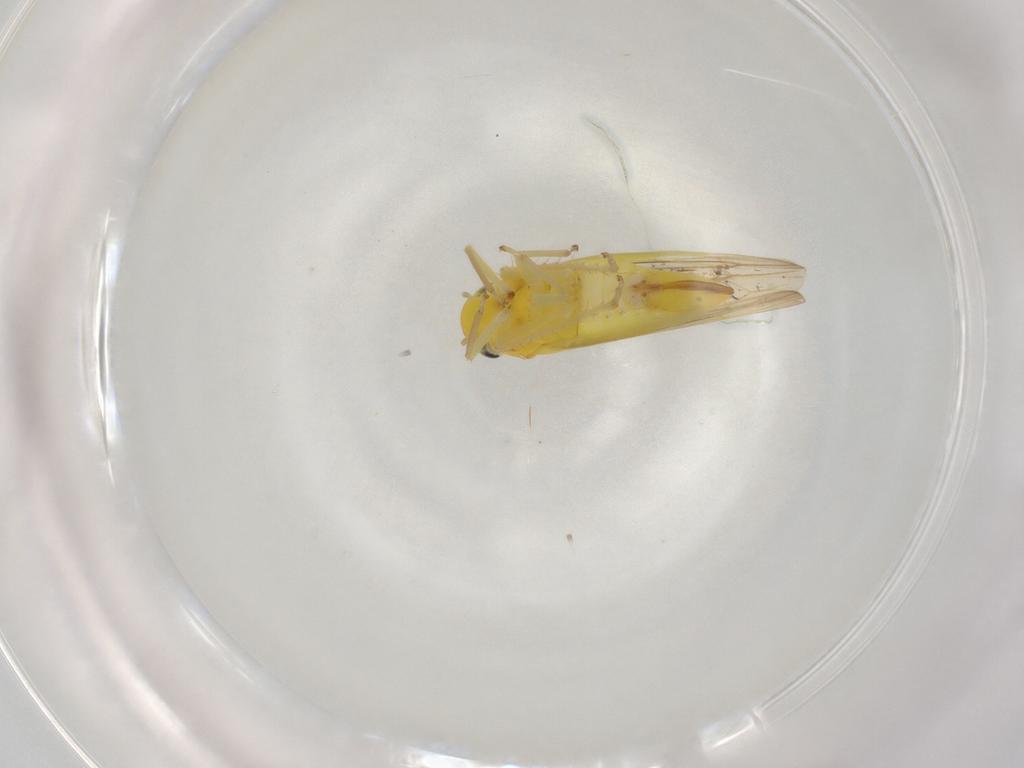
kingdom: Animalia
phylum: Arthropoda
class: Insecta
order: Hemiptera
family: Cicadellidae
